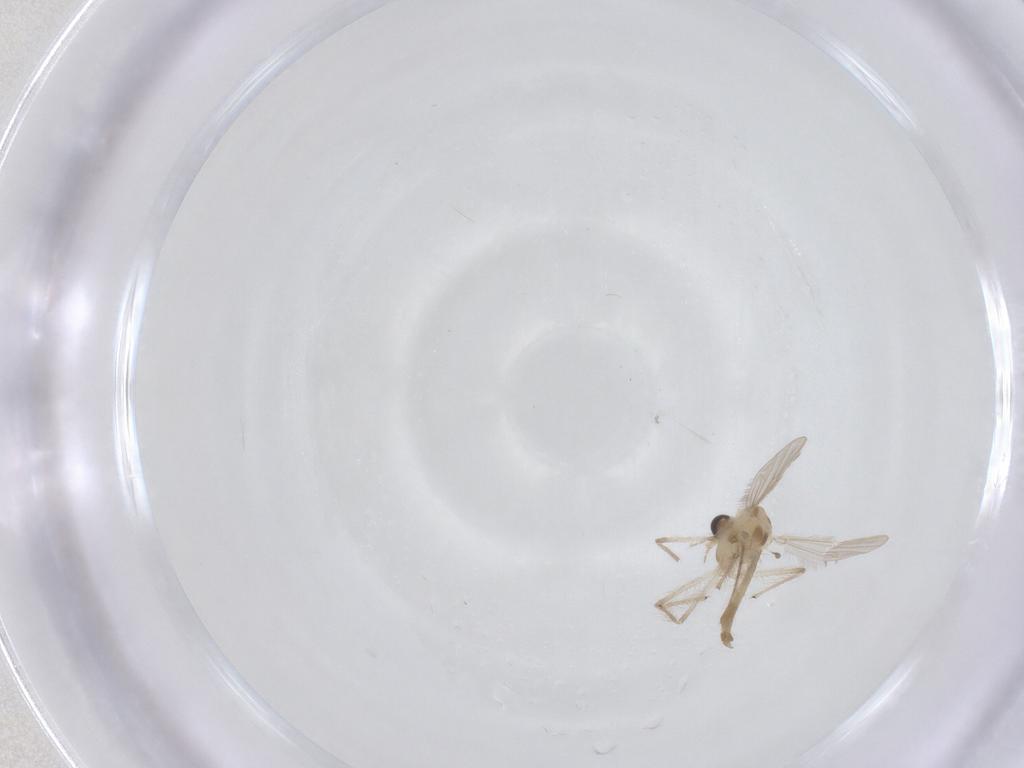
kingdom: Animalia
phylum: Arthropoda
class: Insecta
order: Diptera
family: Chironomidae
